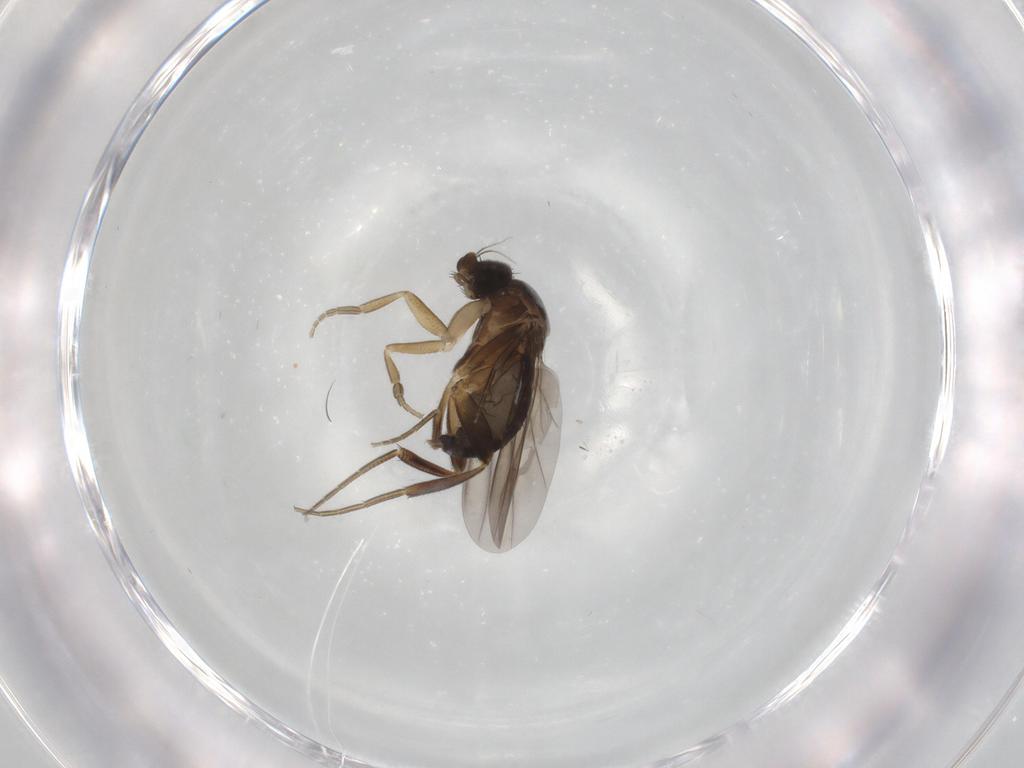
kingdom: Animalia
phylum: Arthropoda
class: Insecta
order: Diptera
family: Phoridae
